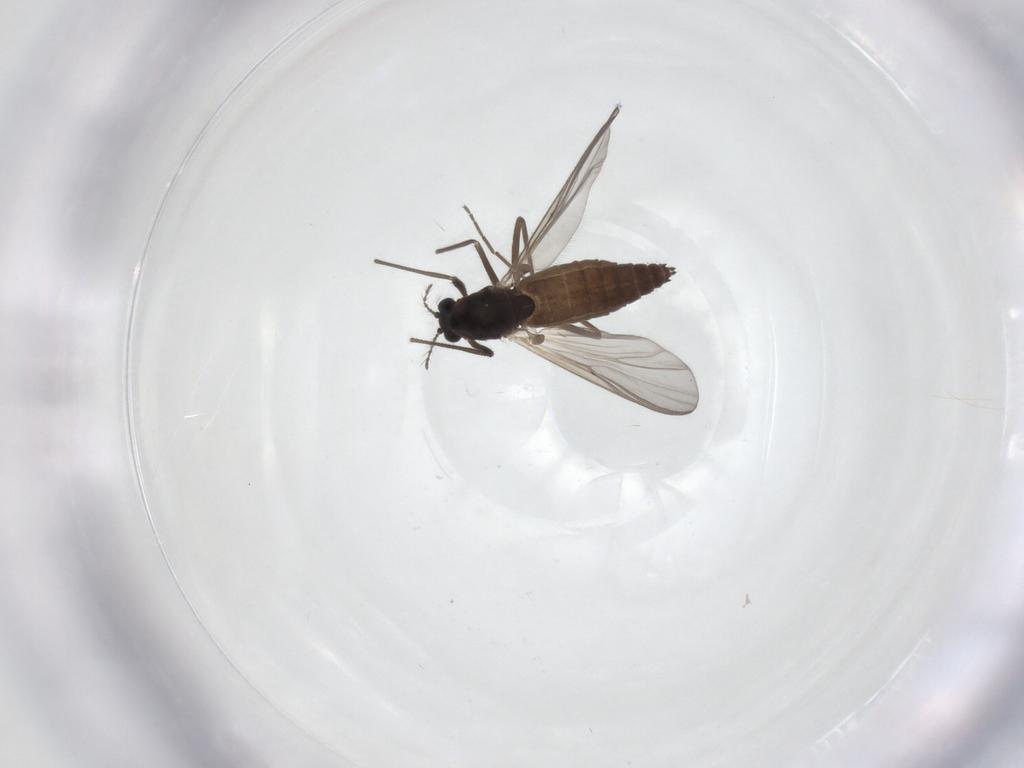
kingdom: Animalia
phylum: Arthropoda
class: Insecta
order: Diptera
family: Chironomidae
